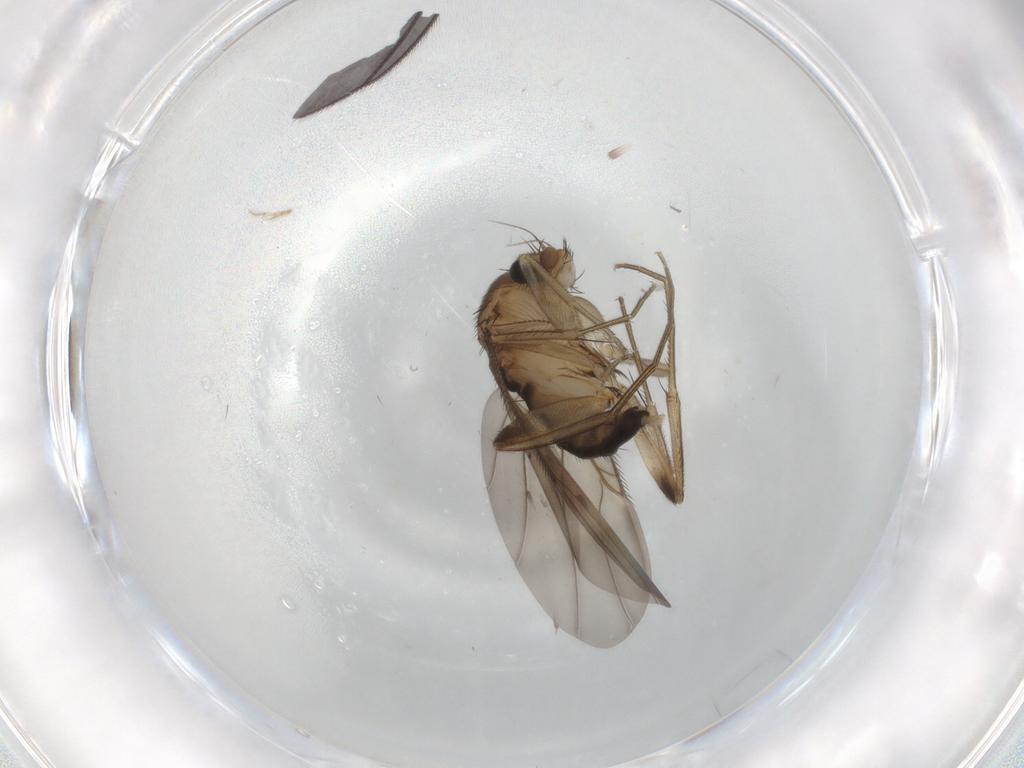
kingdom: Animalia
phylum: Arthropoda
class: Insecta
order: Diptera
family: Phoridae
